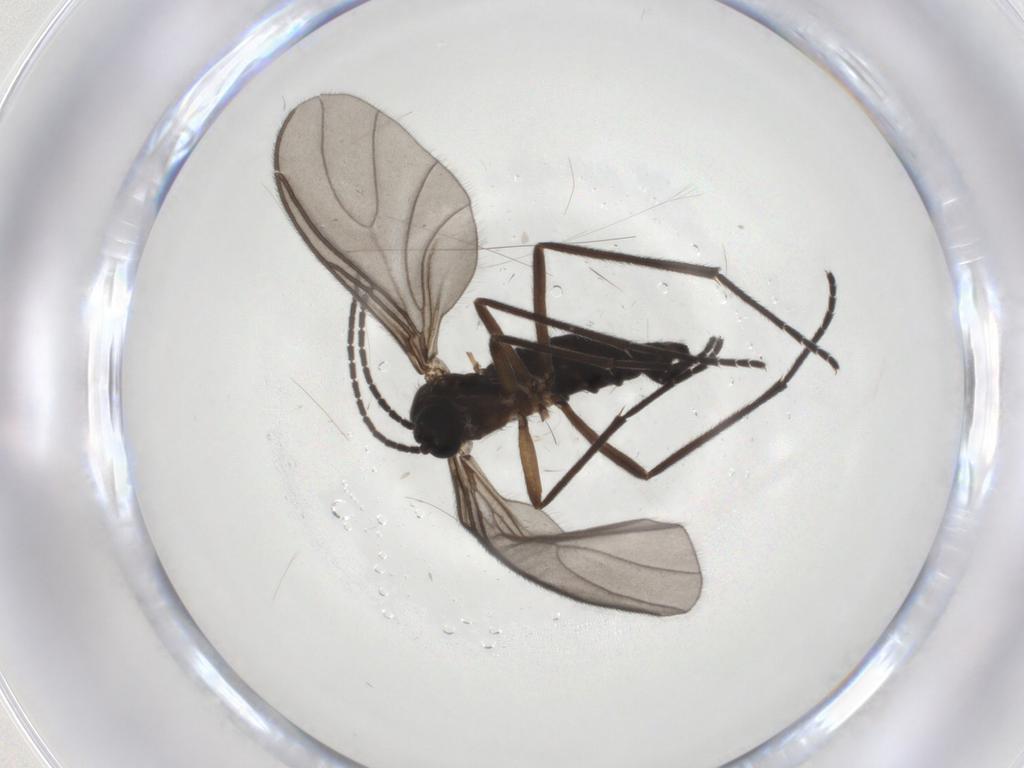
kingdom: Animalia
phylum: Arthropoda
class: Insecta
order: Diptera
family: Sciaridae
